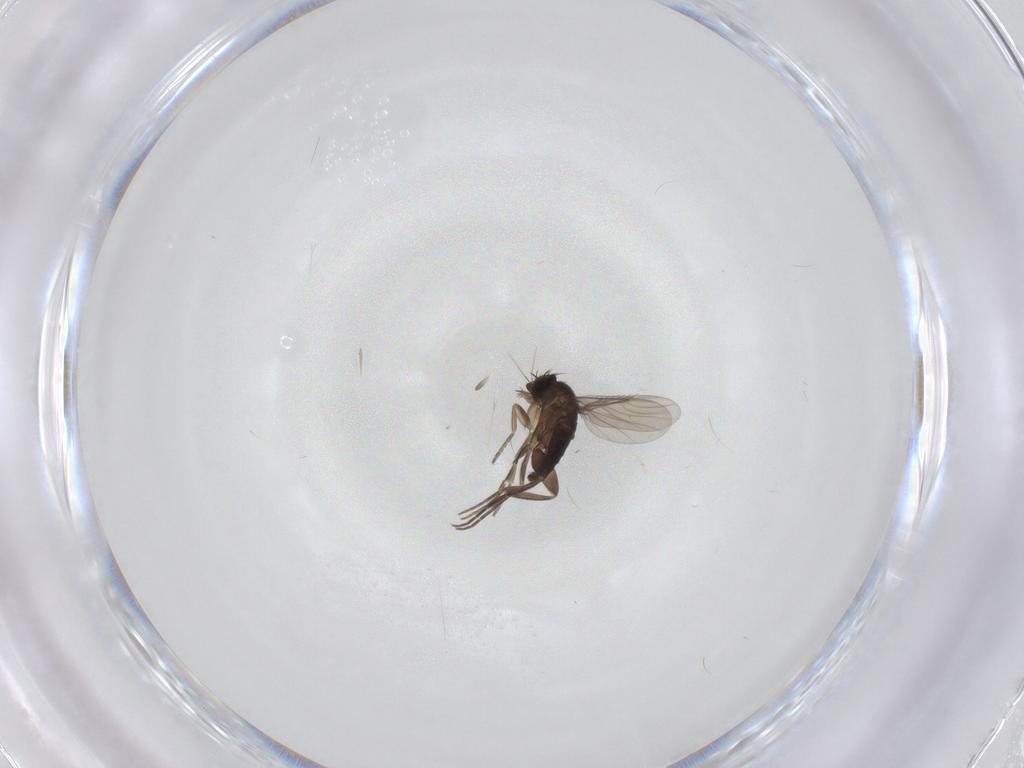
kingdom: Animalia
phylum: Arthropoda
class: Insecta
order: Diptera
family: Phoridae
